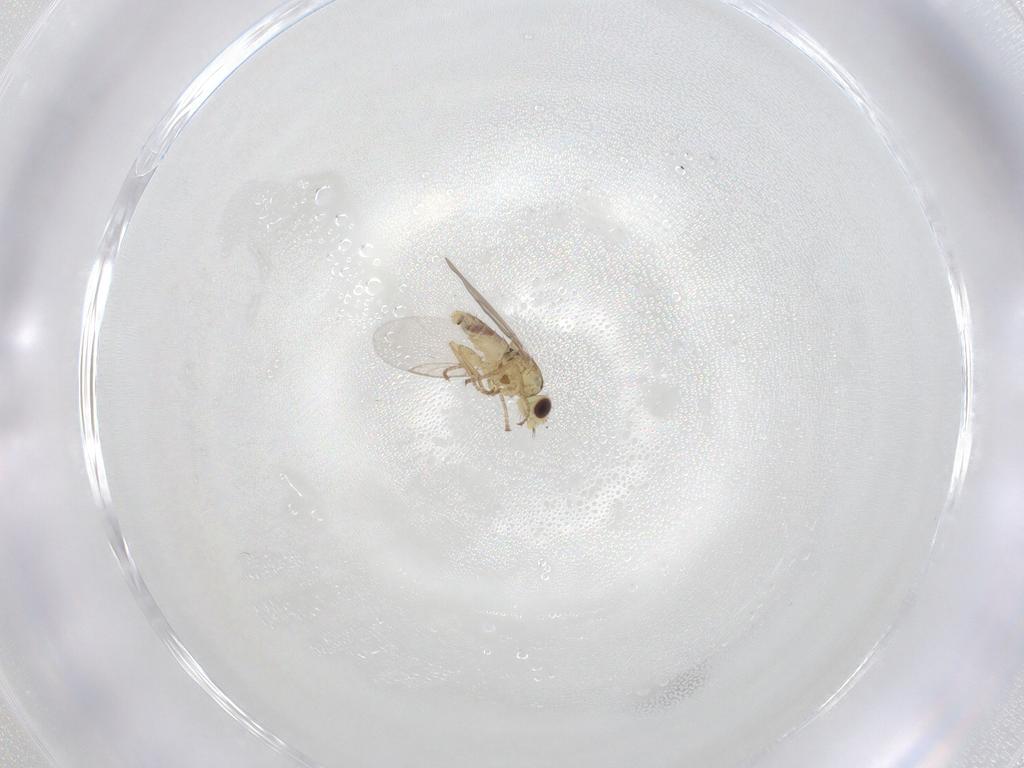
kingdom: Animalia
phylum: Arthropoda
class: Insecta
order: Diptera
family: Agromyzidae
